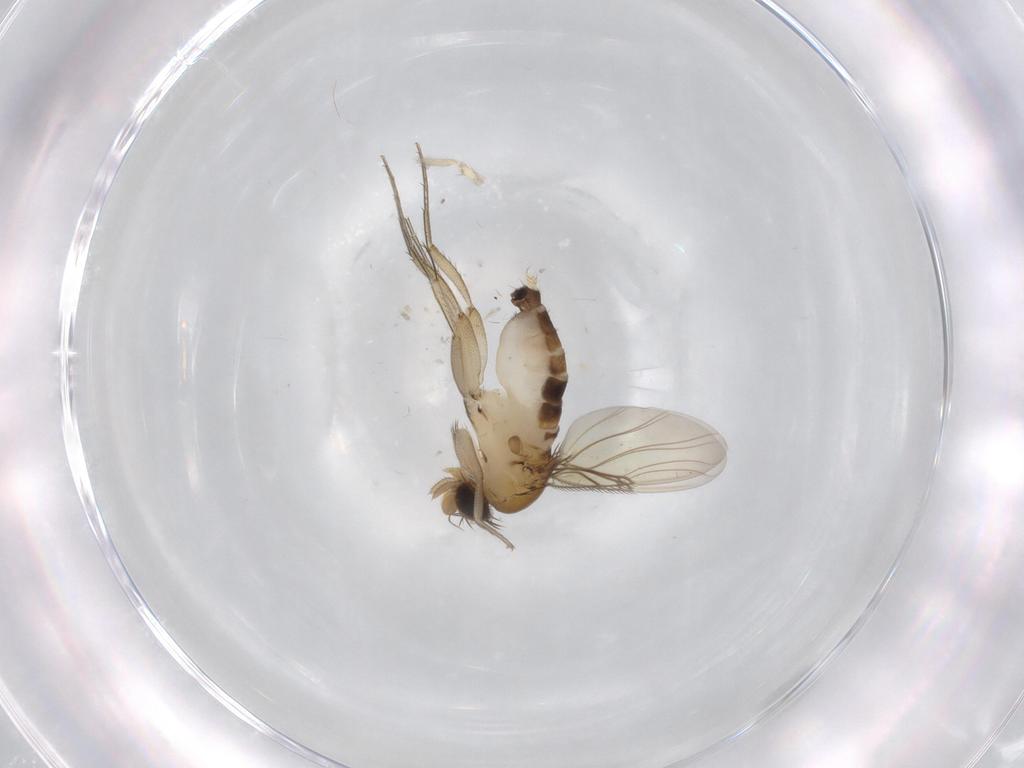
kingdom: Animalia
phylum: Arthropoda
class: Insecta
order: Diptera
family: Phoridae
